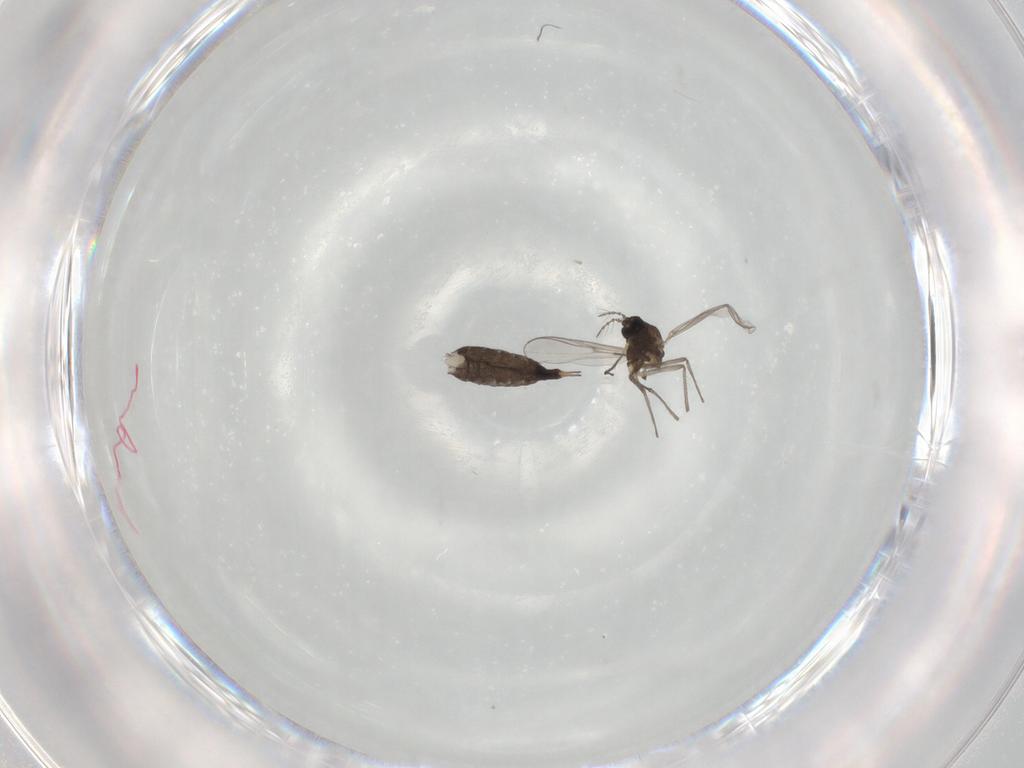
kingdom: Animalia
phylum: Arthropoda
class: Insecta
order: Diptera
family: Chironomidae
